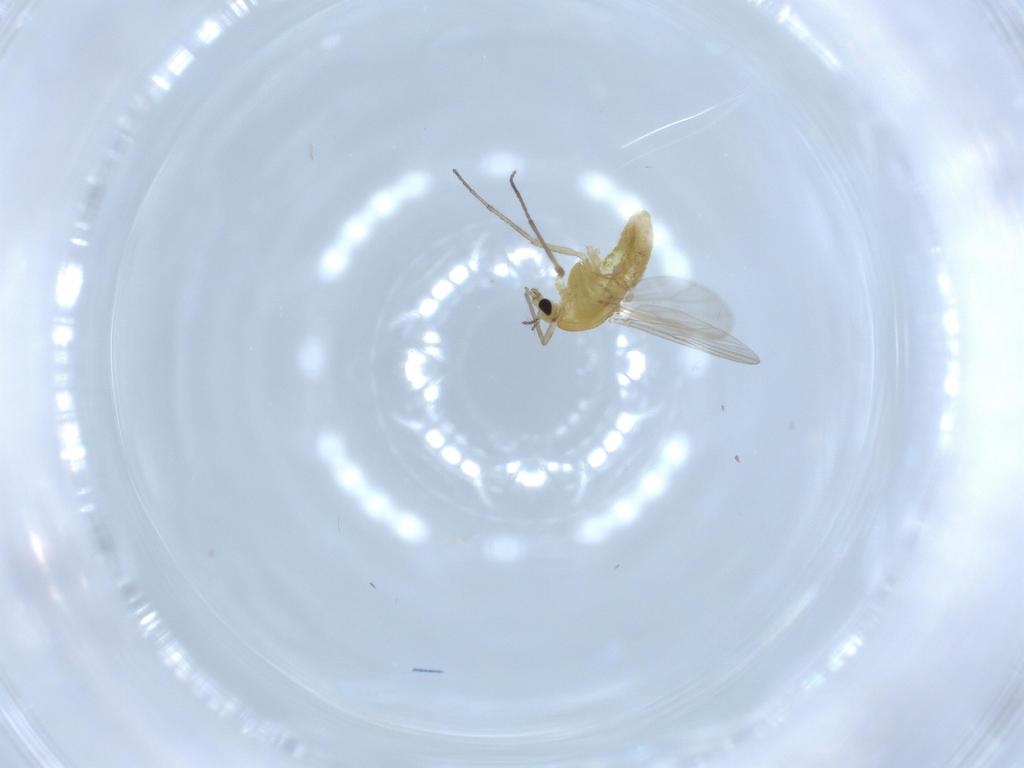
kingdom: Animalia
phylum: Arthropoda
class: Insecta
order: Diptera
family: Chironomidae
